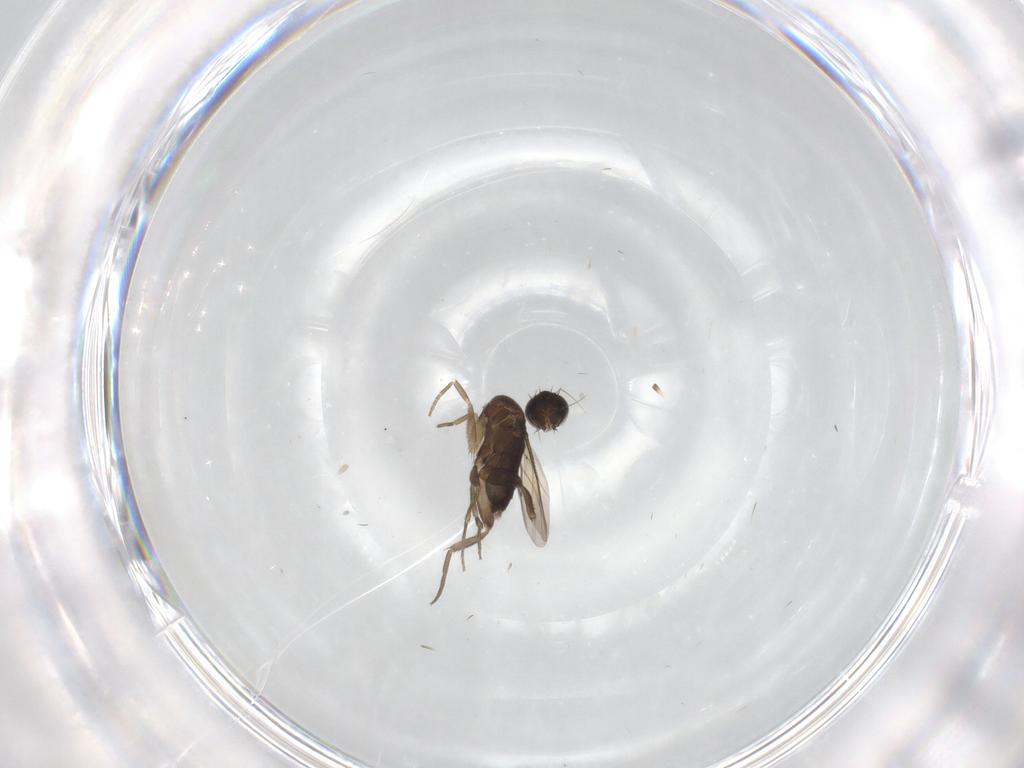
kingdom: Animalia
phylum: Arthropoda
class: Insecta
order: Diptera
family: Phoridae
